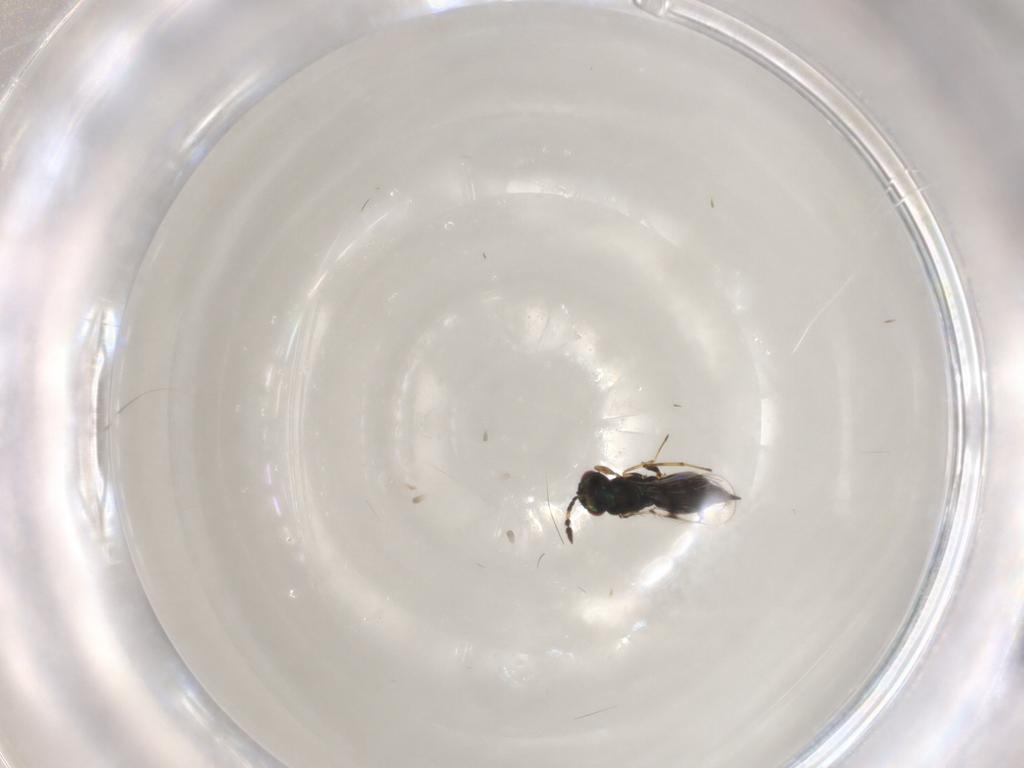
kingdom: Animalia
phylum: Arthropoda
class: Insecta
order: Hymenoptera
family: Eulophidae
